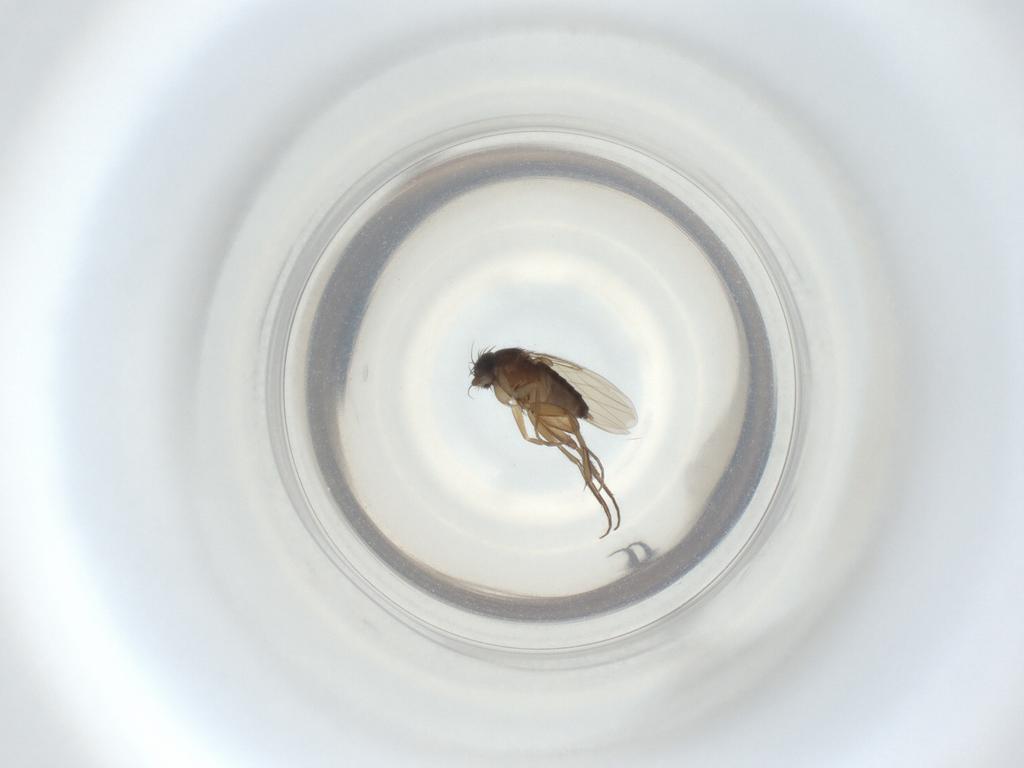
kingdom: Animalia
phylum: Arthropoda
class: Insecta
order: Diptera
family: Phoridae
